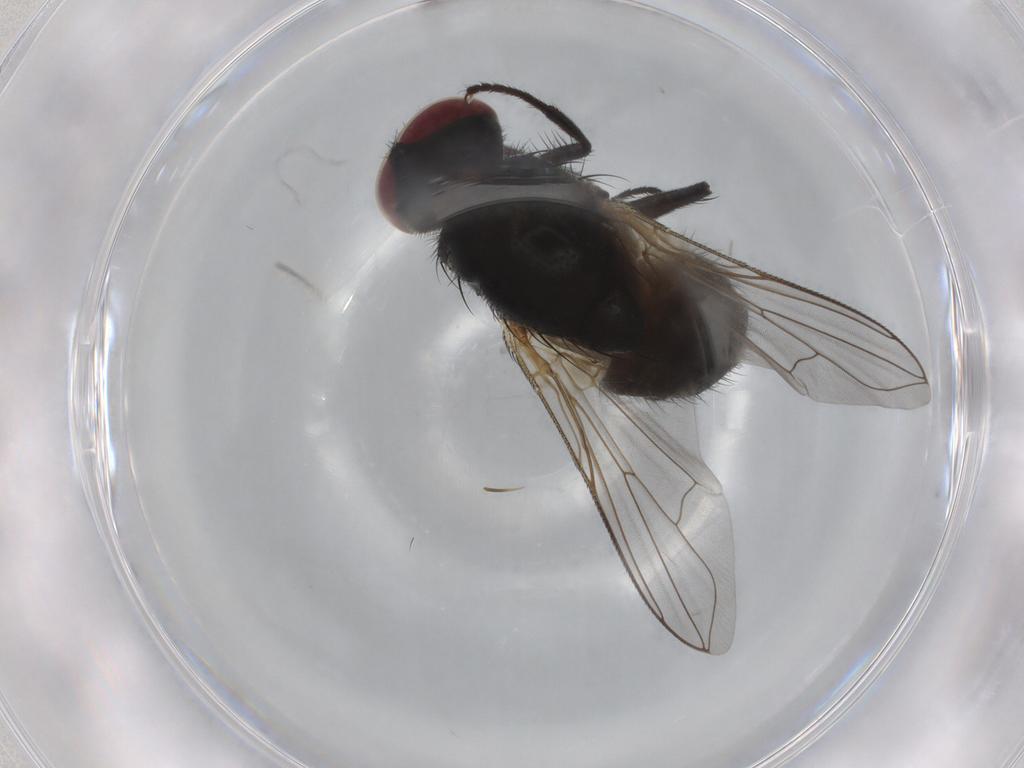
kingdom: Animalia
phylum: Arthropoda
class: Insecta
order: Diptera
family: Muscidae
